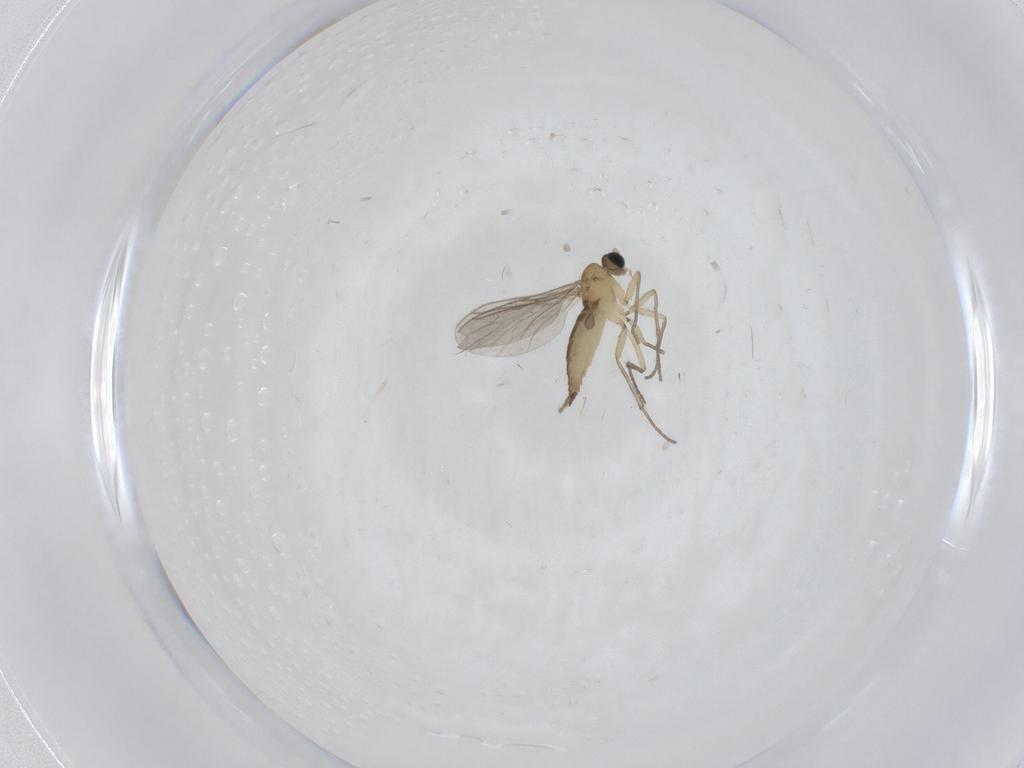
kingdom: Animalia
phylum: Arthropoda
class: Insecta
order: Diptera
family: Sciaridae
